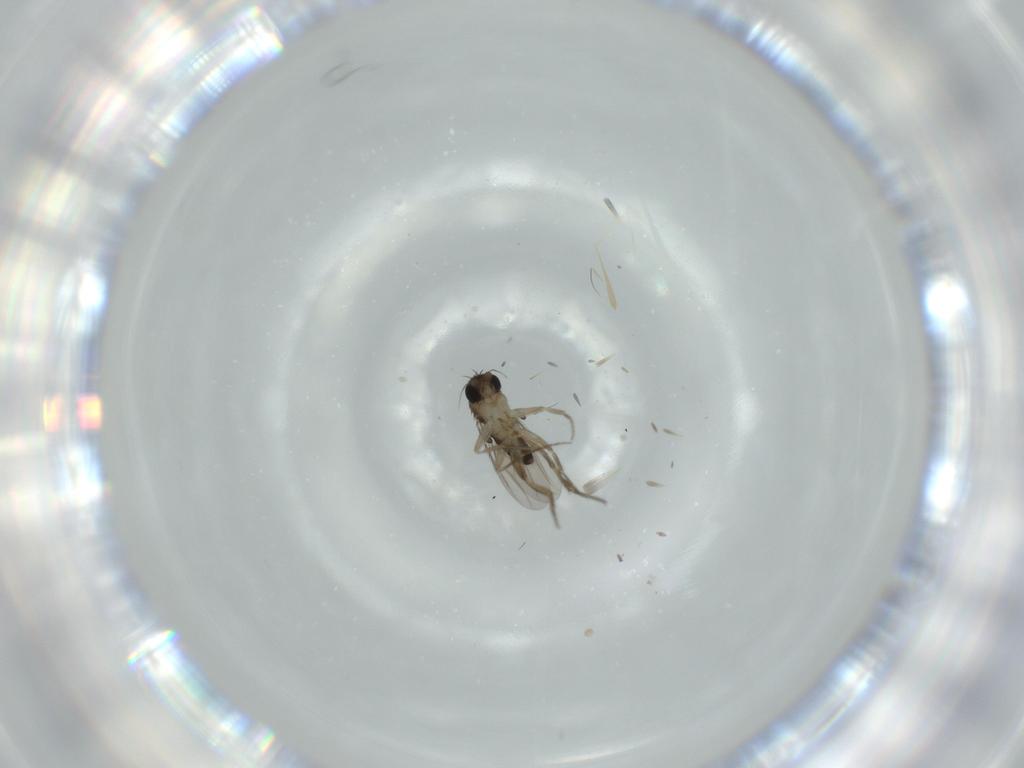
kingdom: Animalia
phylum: Arthropoda
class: Insecta
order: Diptera
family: Phoridae
